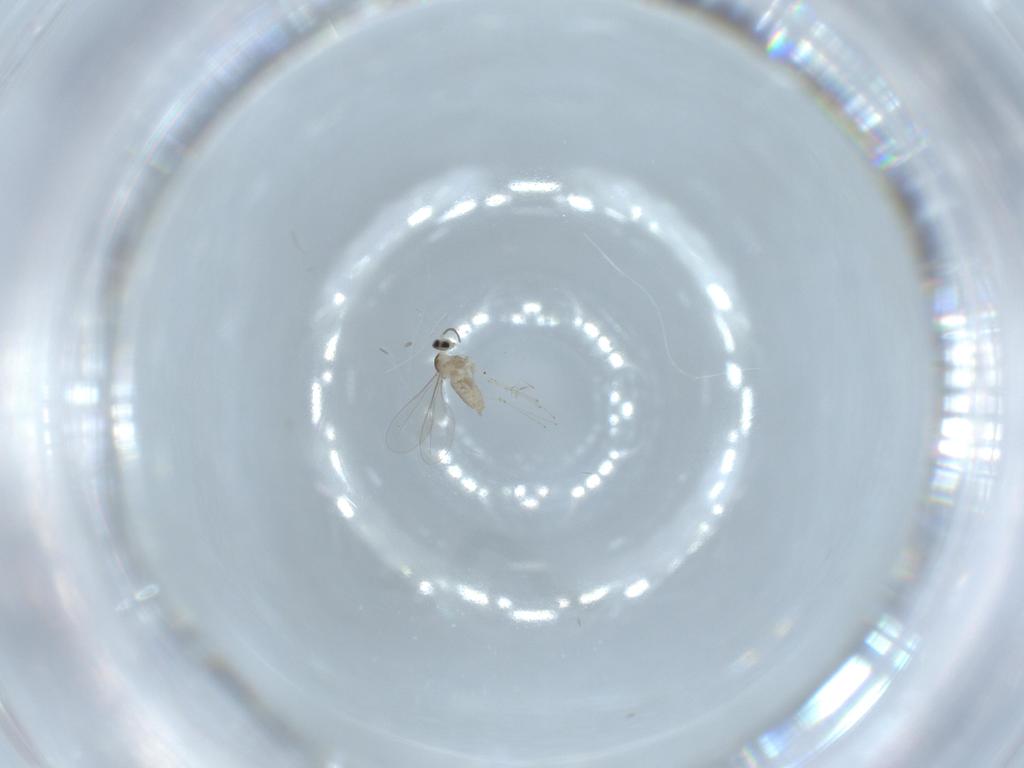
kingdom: Animalia
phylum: Arthropoda
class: Insecta
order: Diptera
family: Cecidomyiidae
